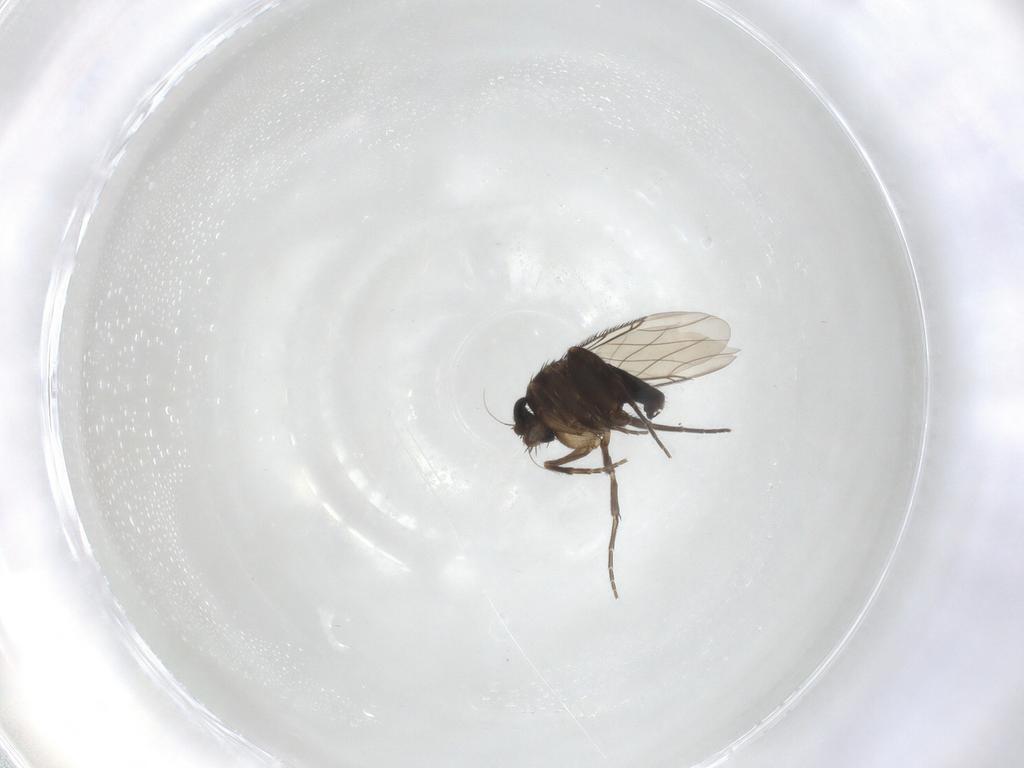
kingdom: Animalia
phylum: Arthropoda
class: Insecta
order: Diptera
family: Phoridae
